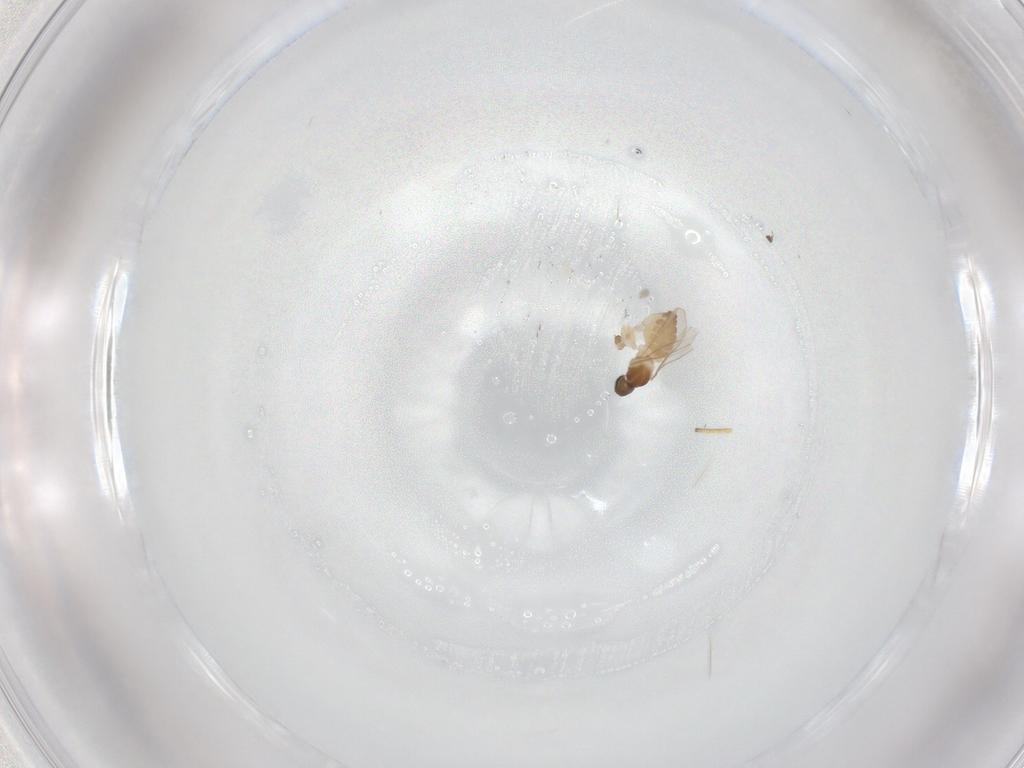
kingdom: Animalia
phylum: Arthropoda
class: Insecta
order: Diptera
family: Cecidomyiidae
